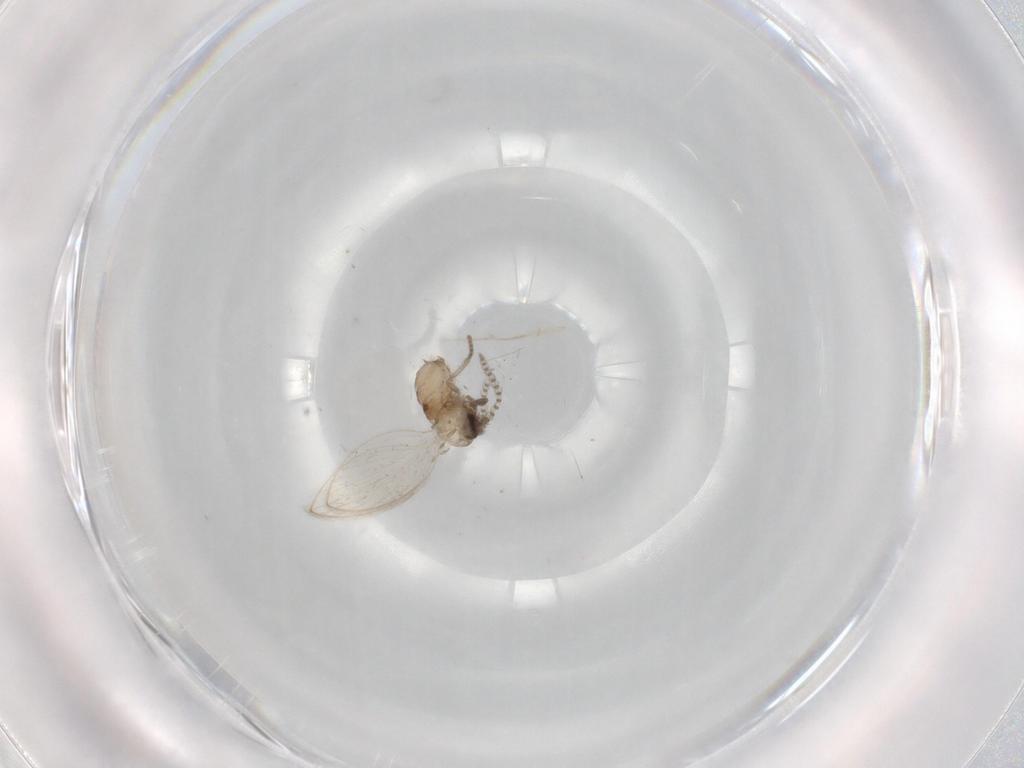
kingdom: Animalia
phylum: Arthropoda
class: Insecta
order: Diptera
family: Psychodidae
